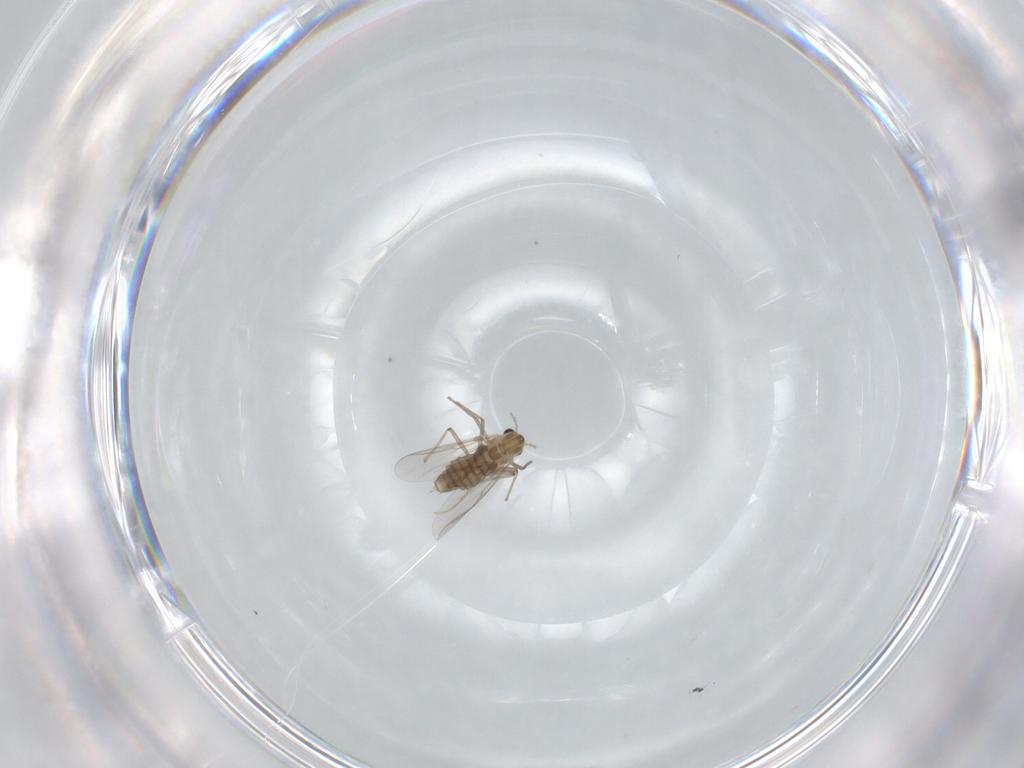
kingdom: Animalia
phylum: Arthropoda
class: Insecta
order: Diptera
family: Chironomidae
